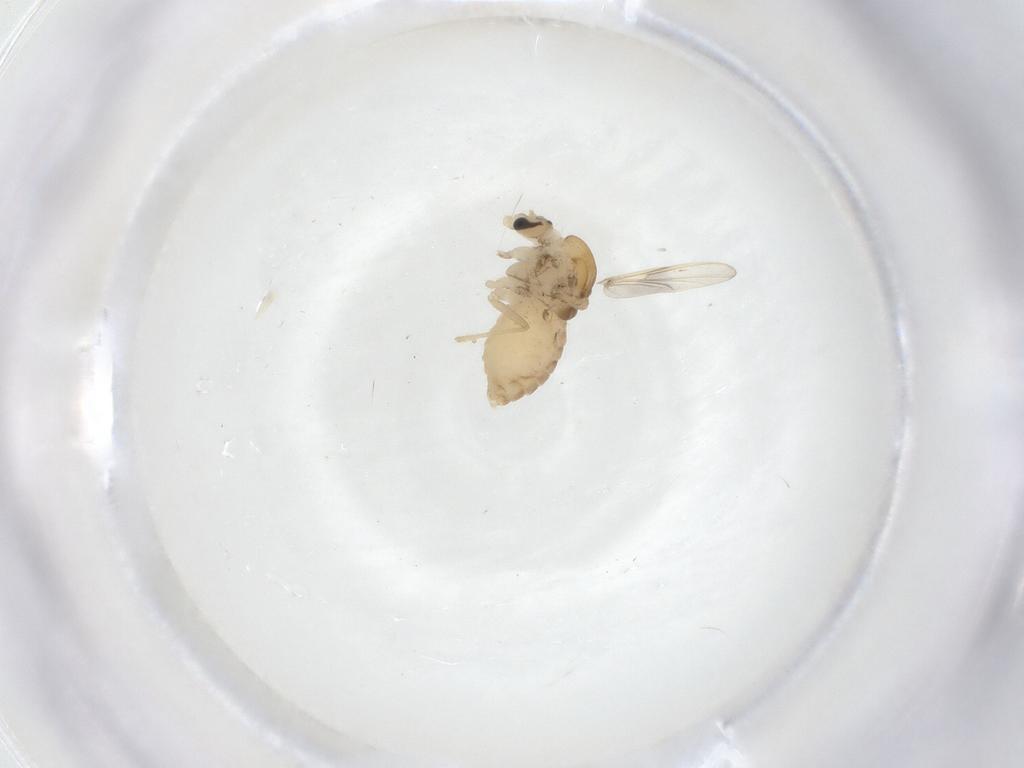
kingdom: Animalia
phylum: Arthropoda
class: Insecta
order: Diptera
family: Chironomidae
